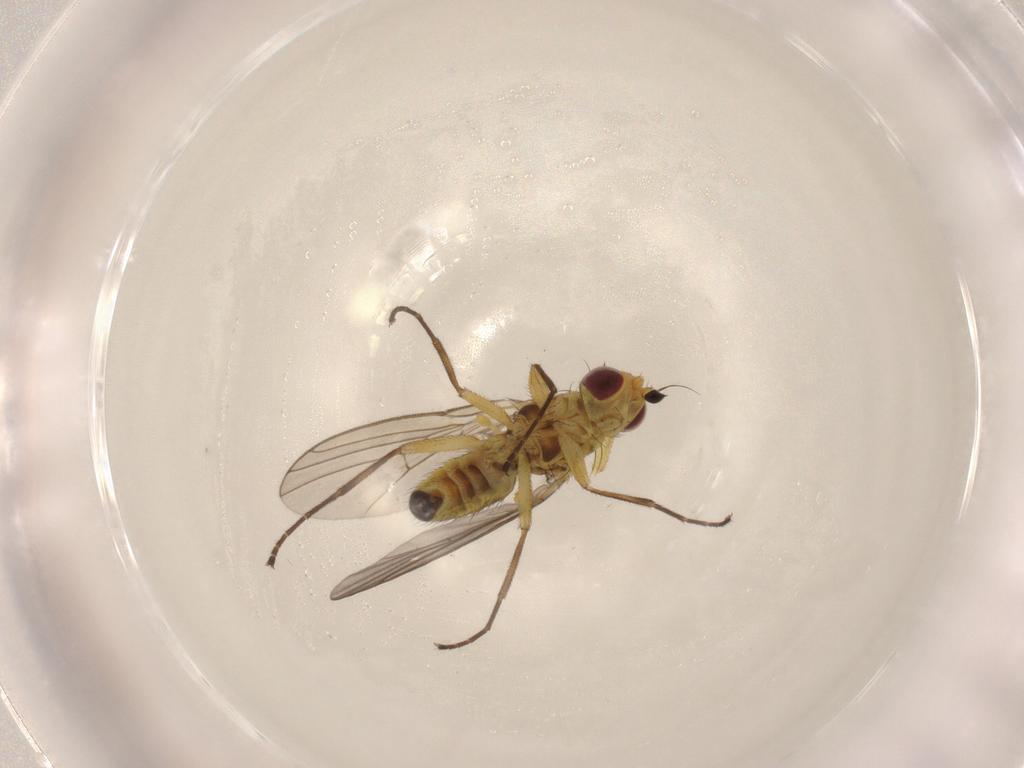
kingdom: Animalia
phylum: Arthropoda
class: Insecta
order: Diptera
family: Agromyzidae
